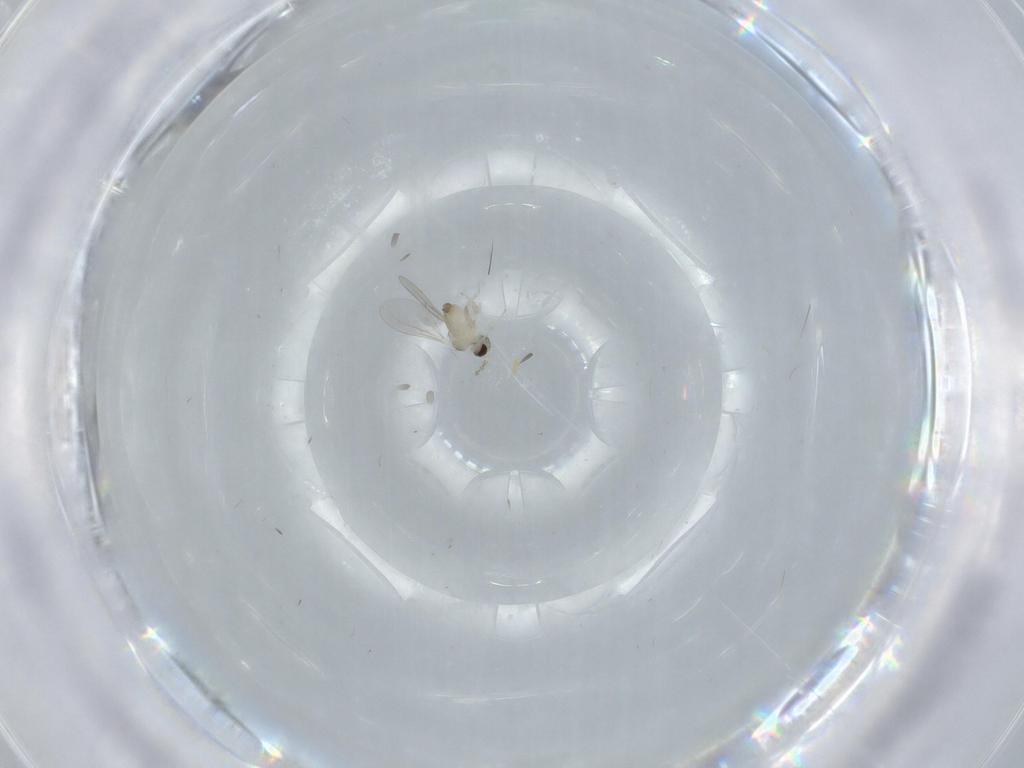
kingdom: Animalia
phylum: Arthropoda
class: Insecta
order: Diptera
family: Cecidomyiidae
